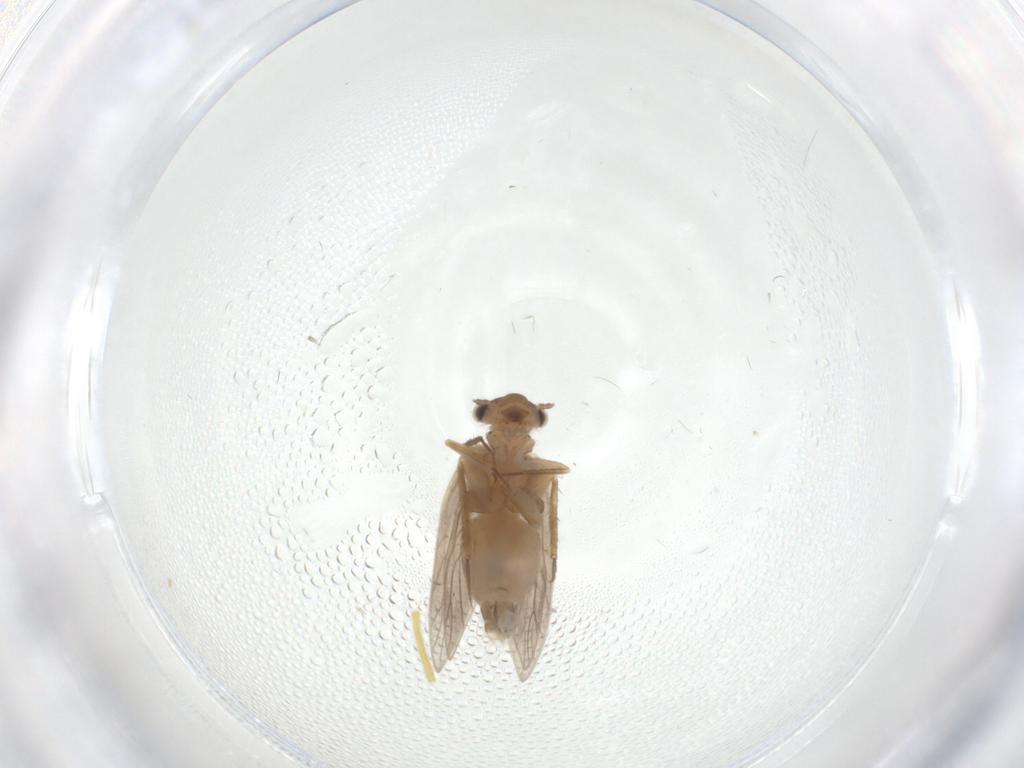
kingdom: Animalia
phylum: Arthropoda
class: Insecta
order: Psocodea
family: Lepidopsocidae
